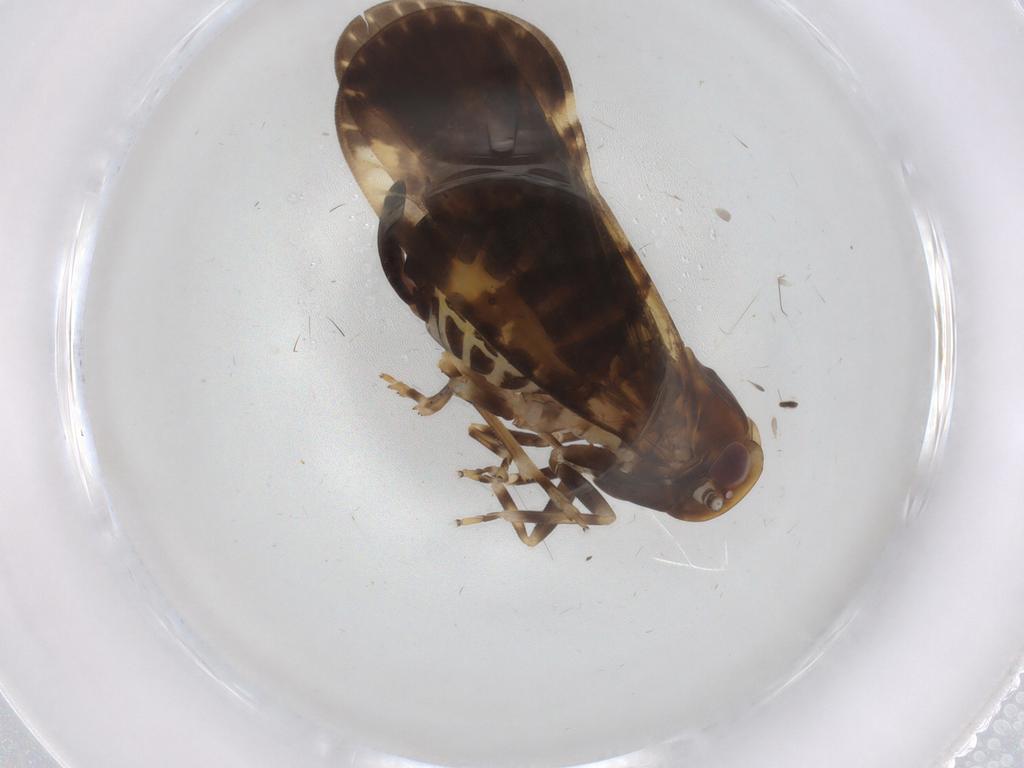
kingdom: Animalia
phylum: Arthropoda
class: Insecta
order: Hemiptera
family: Cixiidae
